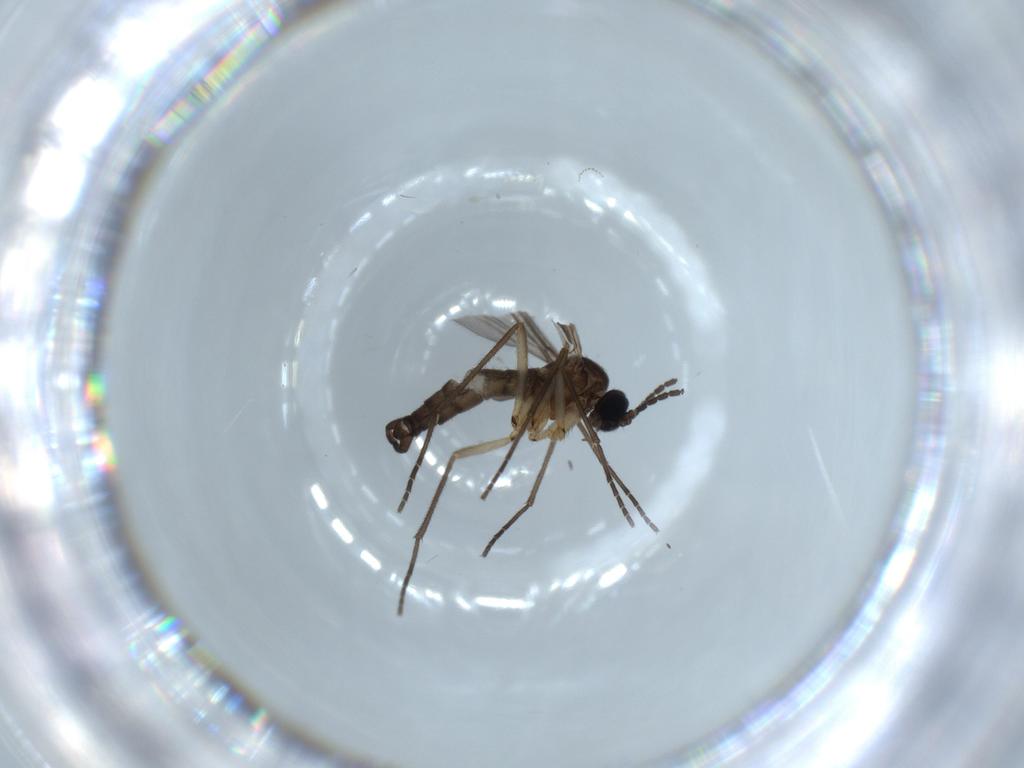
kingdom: Animalia
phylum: Arthropoda
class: Insecta
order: Diptera
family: Sciaridae
